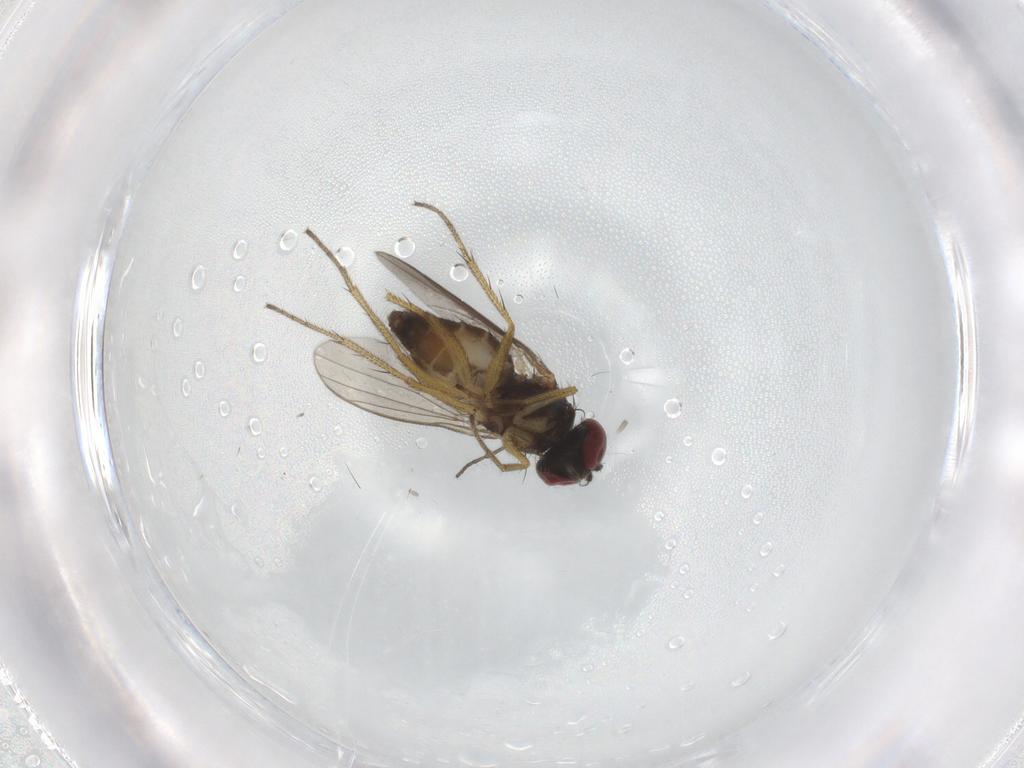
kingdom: Animalia
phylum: Arthropoda
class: Insecta
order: Diptera
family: Sciaridae
